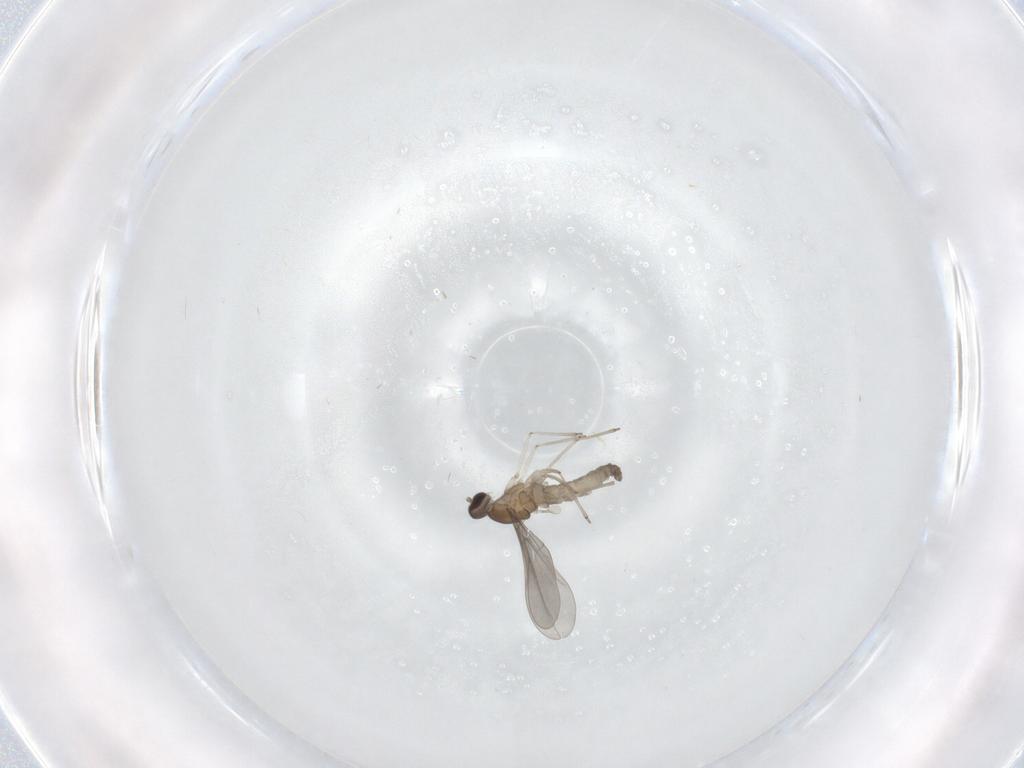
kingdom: Animalia
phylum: Arthropoda
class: Insecta
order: Diptera
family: Cecidomyiidae
